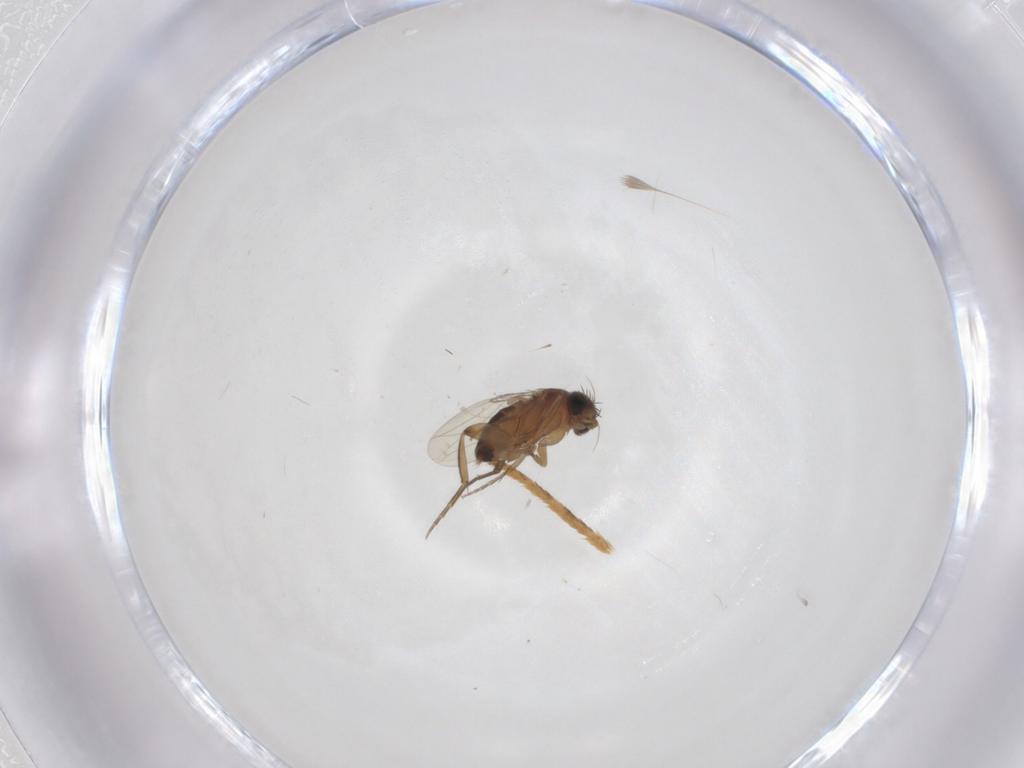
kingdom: Animalia
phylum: Arthropoda
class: Insecta
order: Diptera
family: Phoridae
